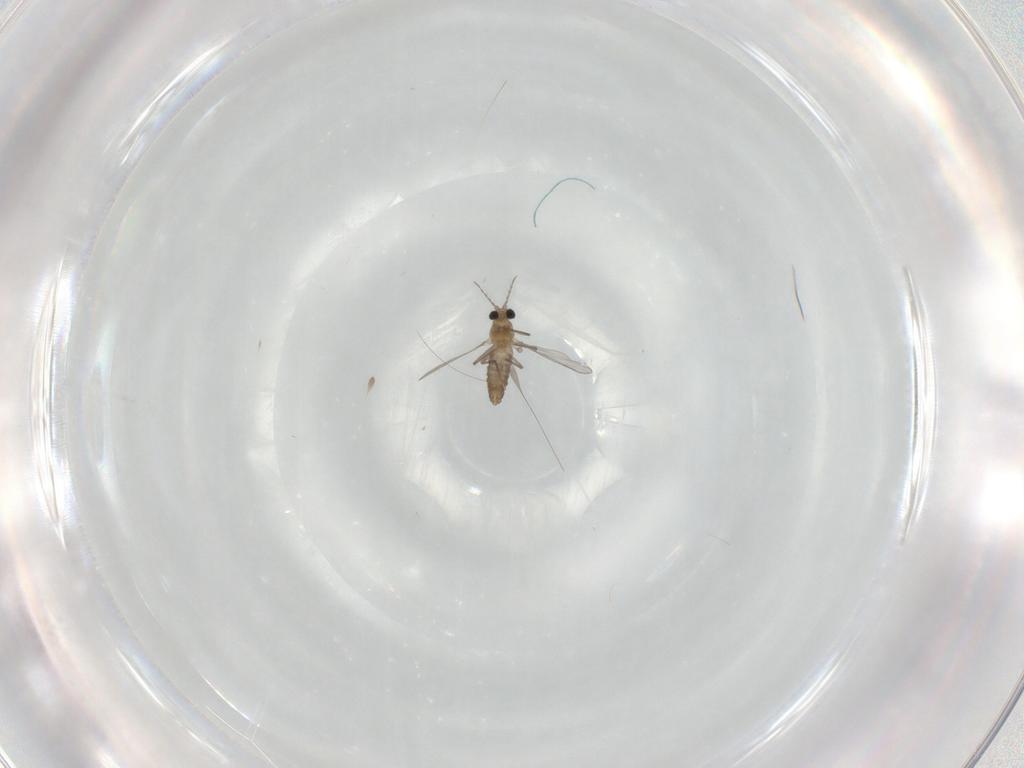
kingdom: Animalia
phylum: Arthropoda
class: Insecta
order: Diptera
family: Chironomidae
